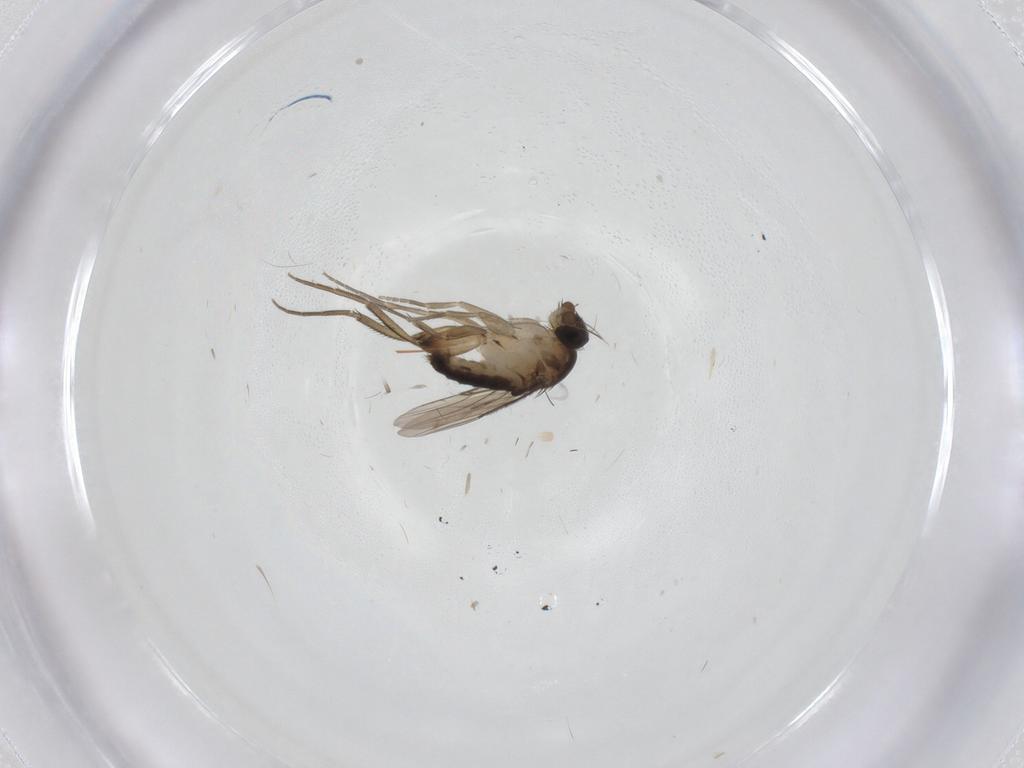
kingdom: Animalia
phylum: Arthropoda
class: Insecta
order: Diptera
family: Phoridae
